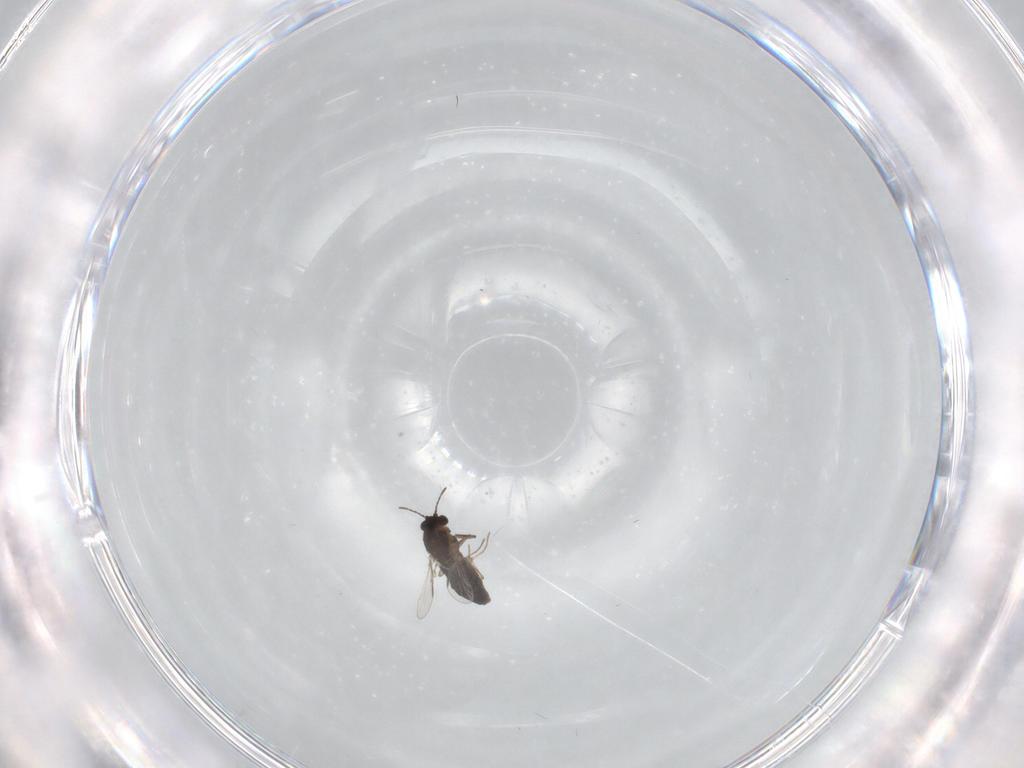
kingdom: Animalia
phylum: Arthropoda
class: Insecta
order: Diptera
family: Chironomidae
